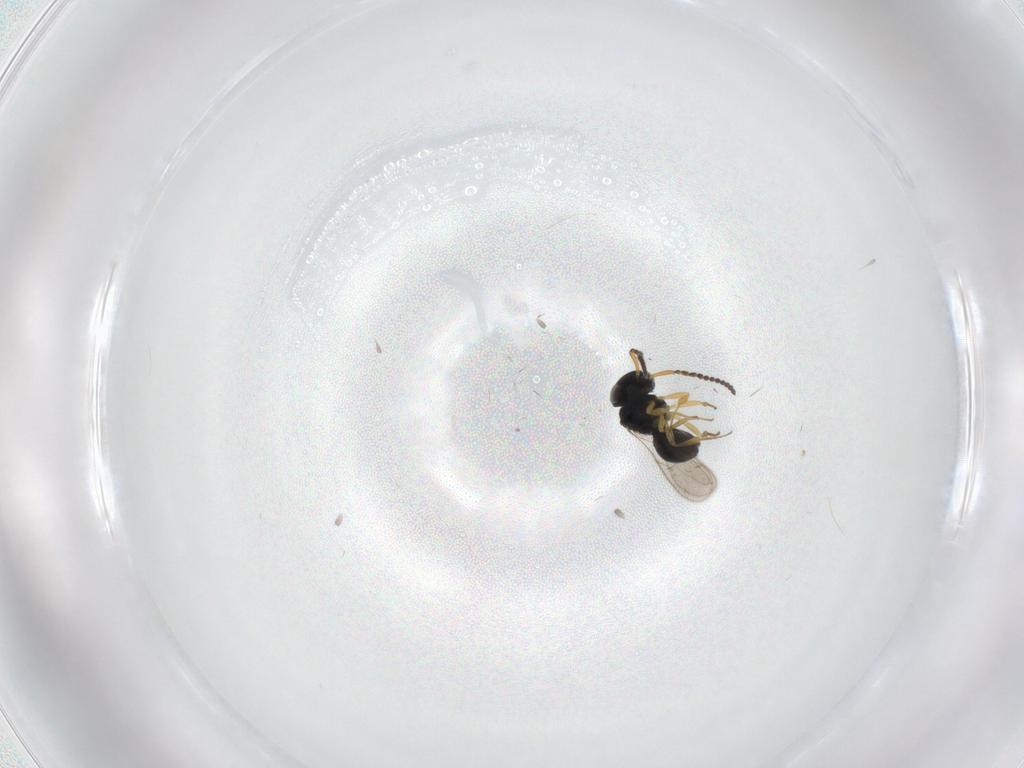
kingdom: Animalia
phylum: Arthropoda
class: Insecta
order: Hymenoptera
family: Scelionidae
